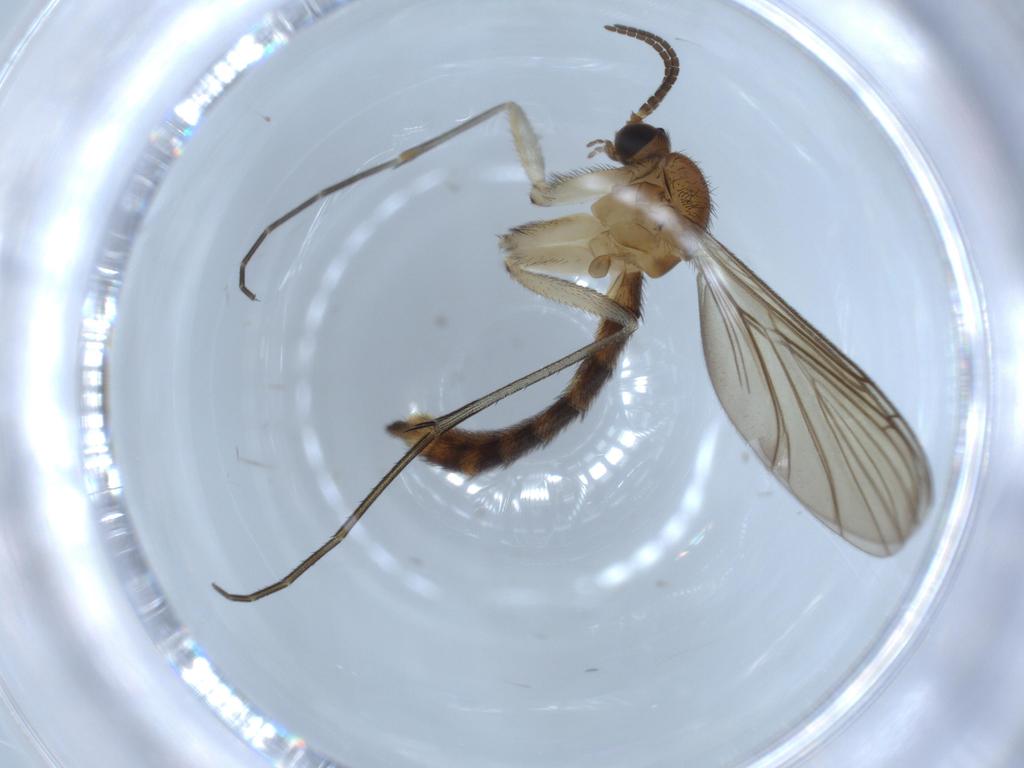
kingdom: Animalia
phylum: Arthropoda
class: Insecta
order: Diptera
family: Keroplatidae
